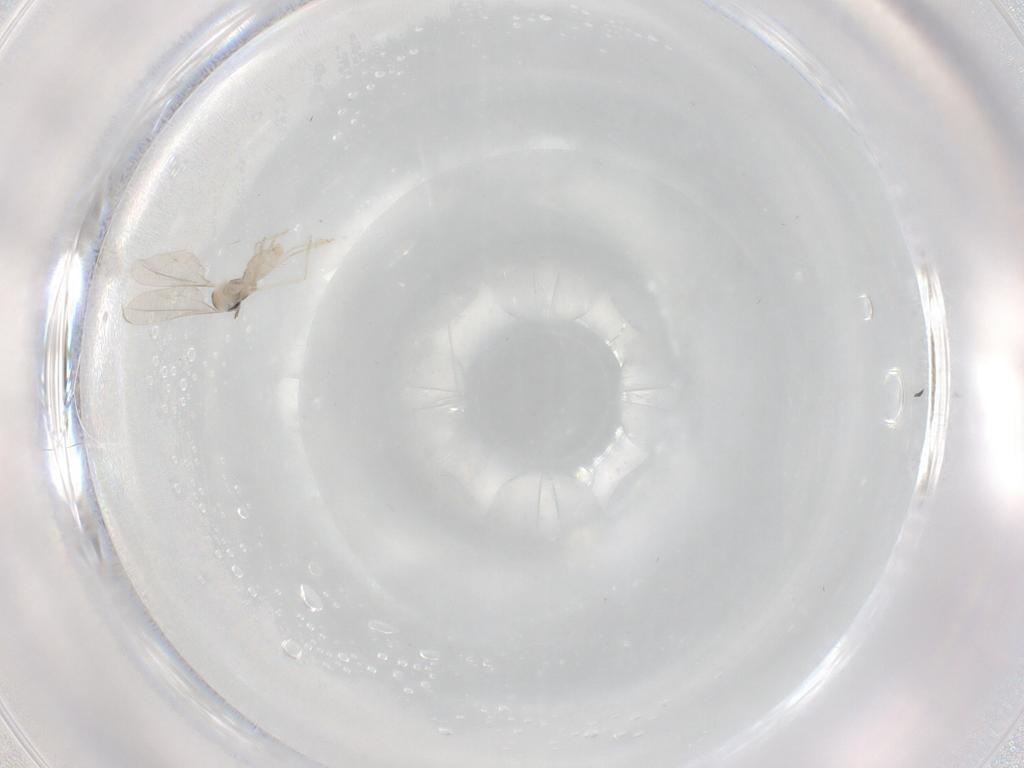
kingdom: Animalia
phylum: Arthropoda
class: Insecta
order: Diptera
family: Cecidomyiidae
